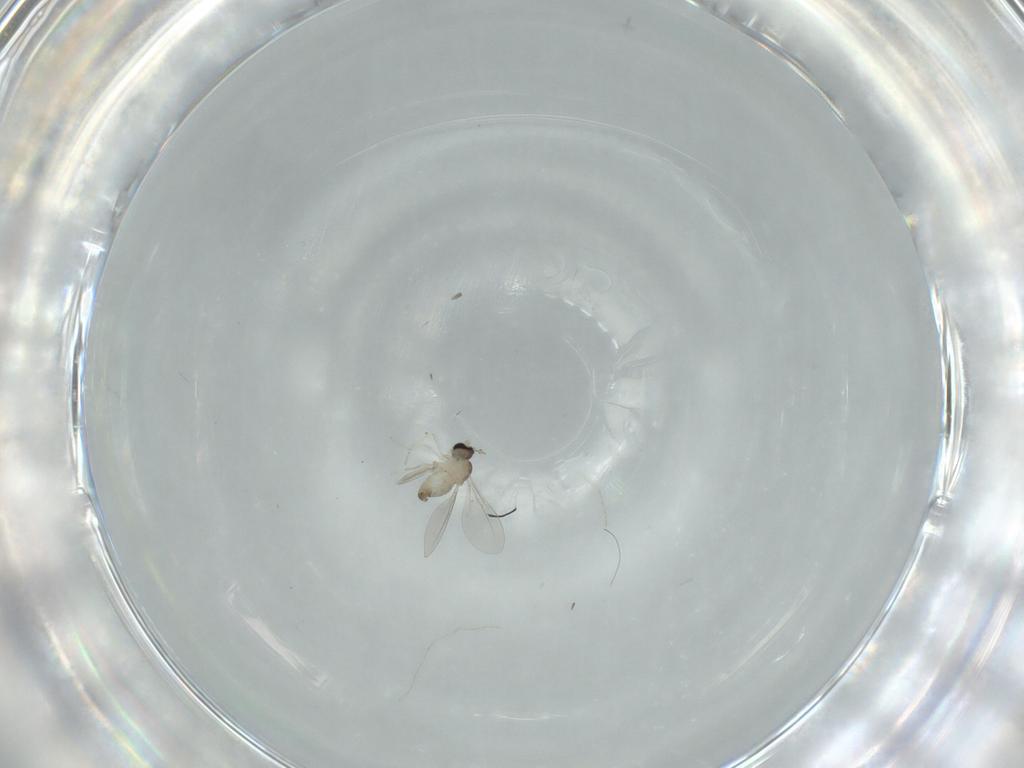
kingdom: Animalia
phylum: Arthropoda
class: Insecta
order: Diptera
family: Cecidomyiidae
